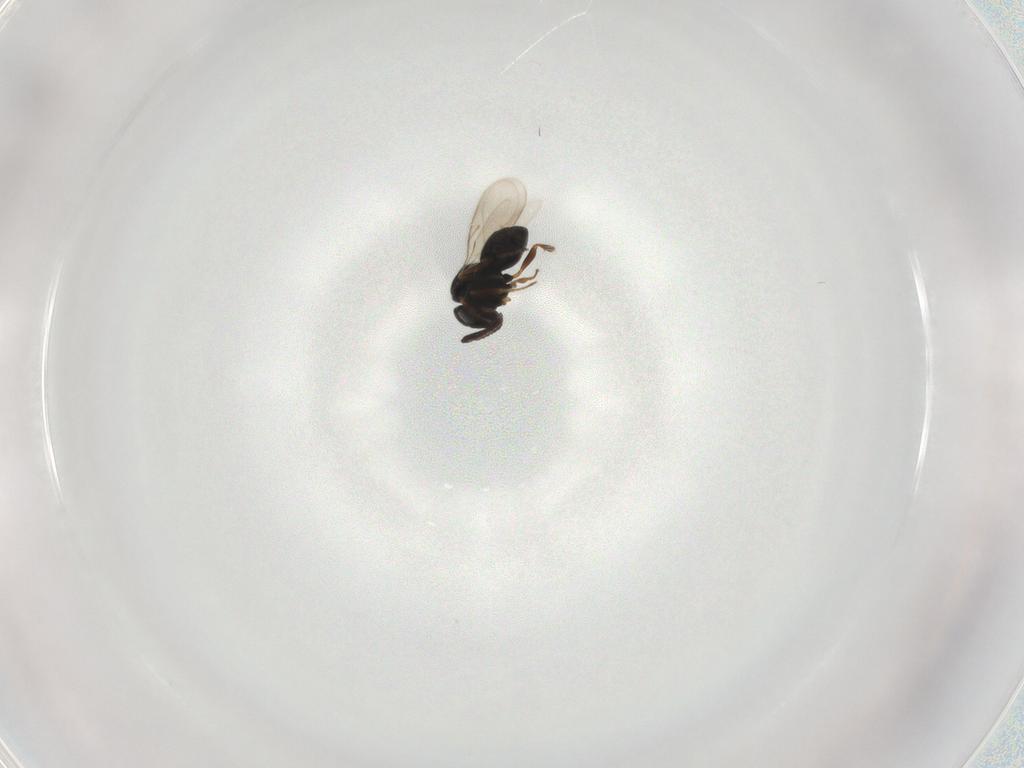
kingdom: Animalia
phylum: Arthropoda
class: Insecta
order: Hymenoptera
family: Scelionidae
